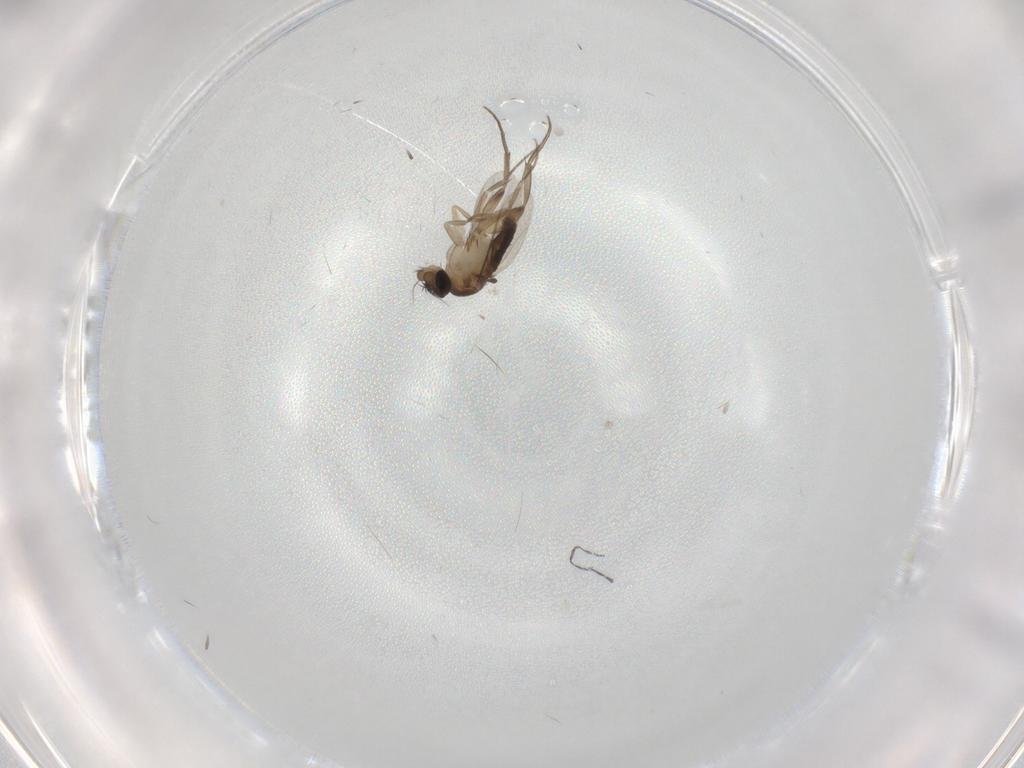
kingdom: Animalia
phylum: Arthropoda
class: Insecta
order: Diptera
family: Phoridae
